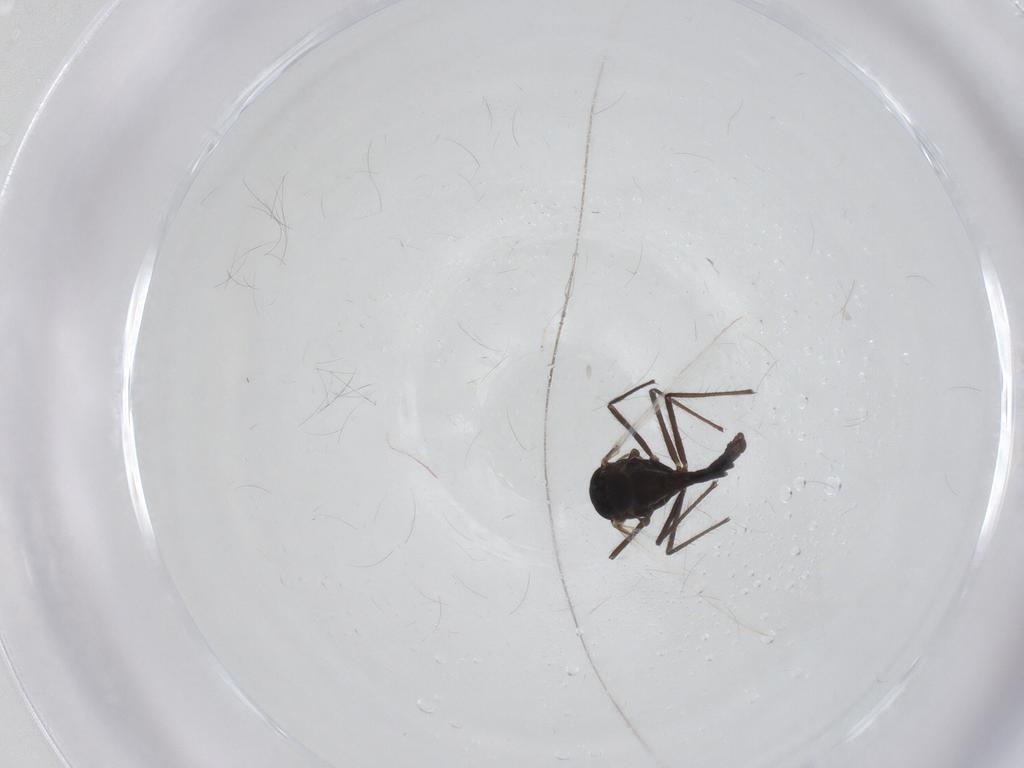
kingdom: Animalia
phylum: Arthropoda
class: Insecta
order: Diptera
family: Chironomidae
